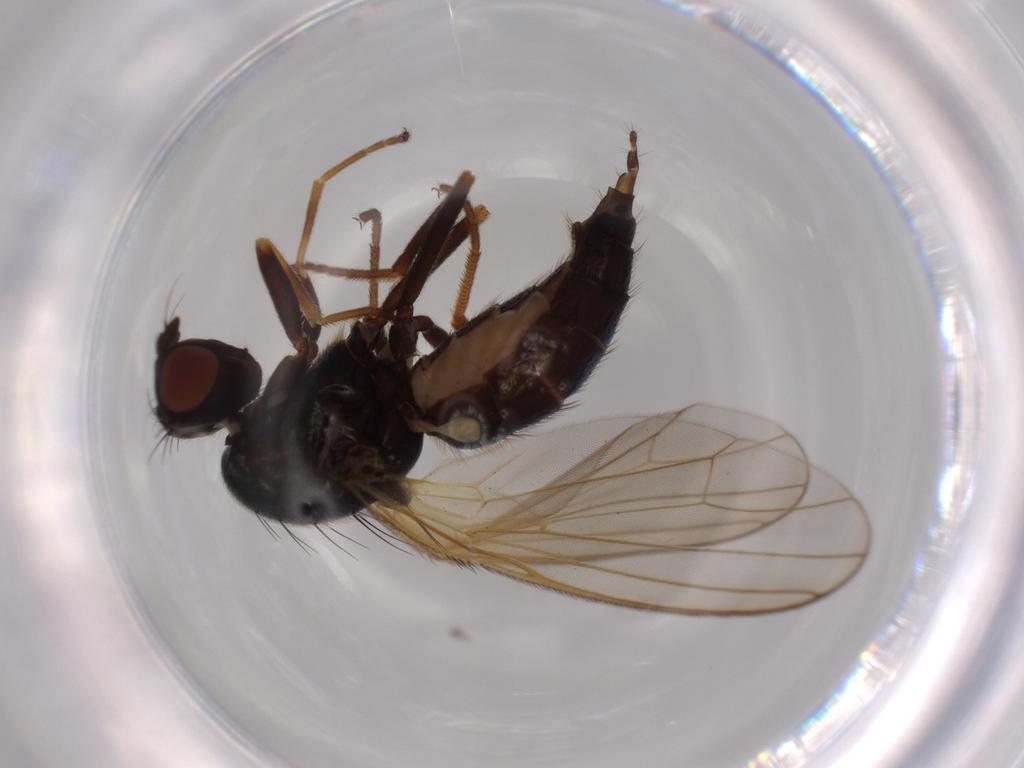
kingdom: Animalia
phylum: Arthropoda
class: Insecta
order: Diptera
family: Psilidae
